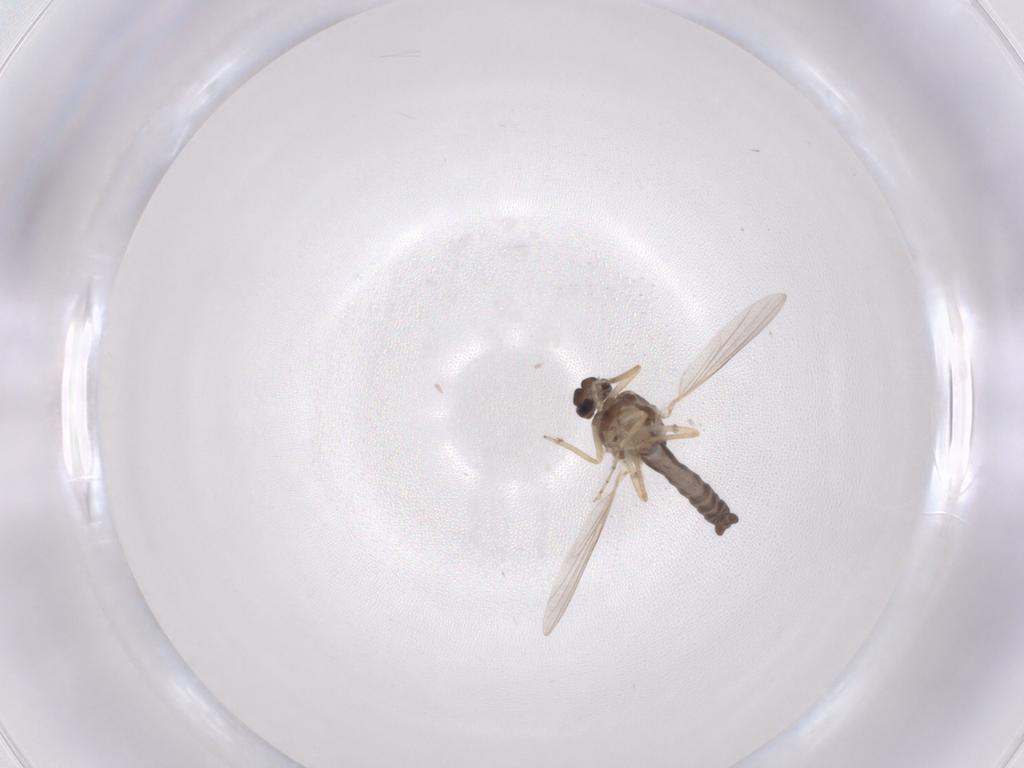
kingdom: Animalia
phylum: Arthropoda
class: Insecta
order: Diptera
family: Ceratopogonidae
